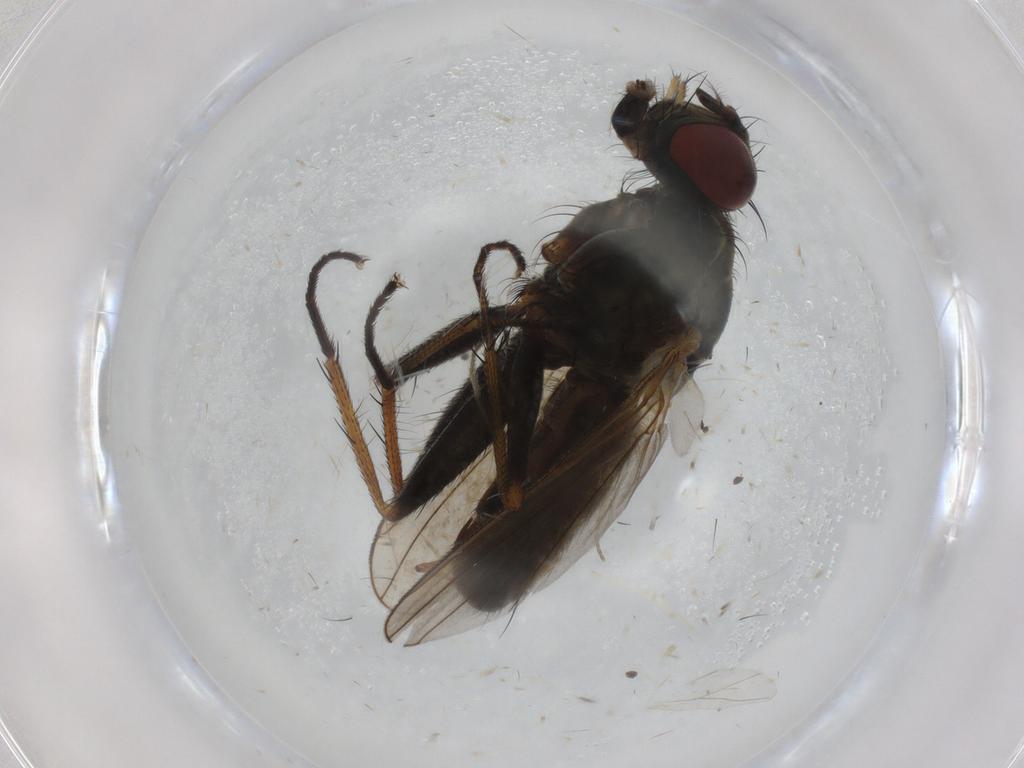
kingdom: Animalia
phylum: Arthropoda
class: Insecta
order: Diptera
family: Muscidae
